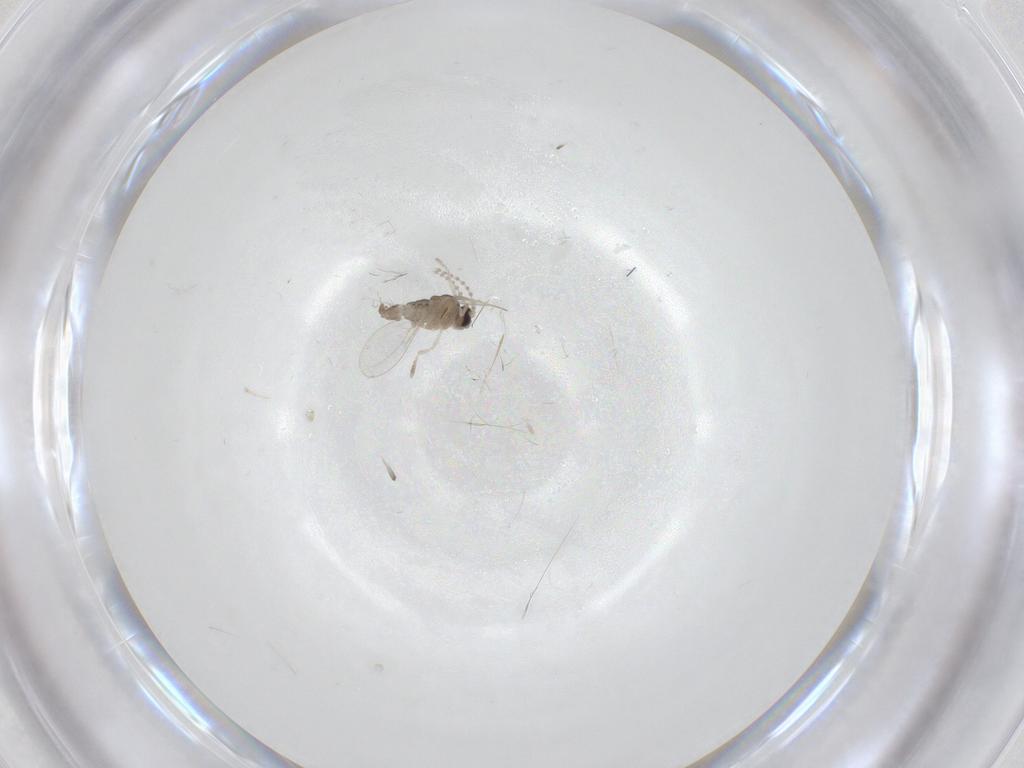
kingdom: Animalia
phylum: Arthropoda
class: Insecta
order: Diptera
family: Cecidomyiidae
